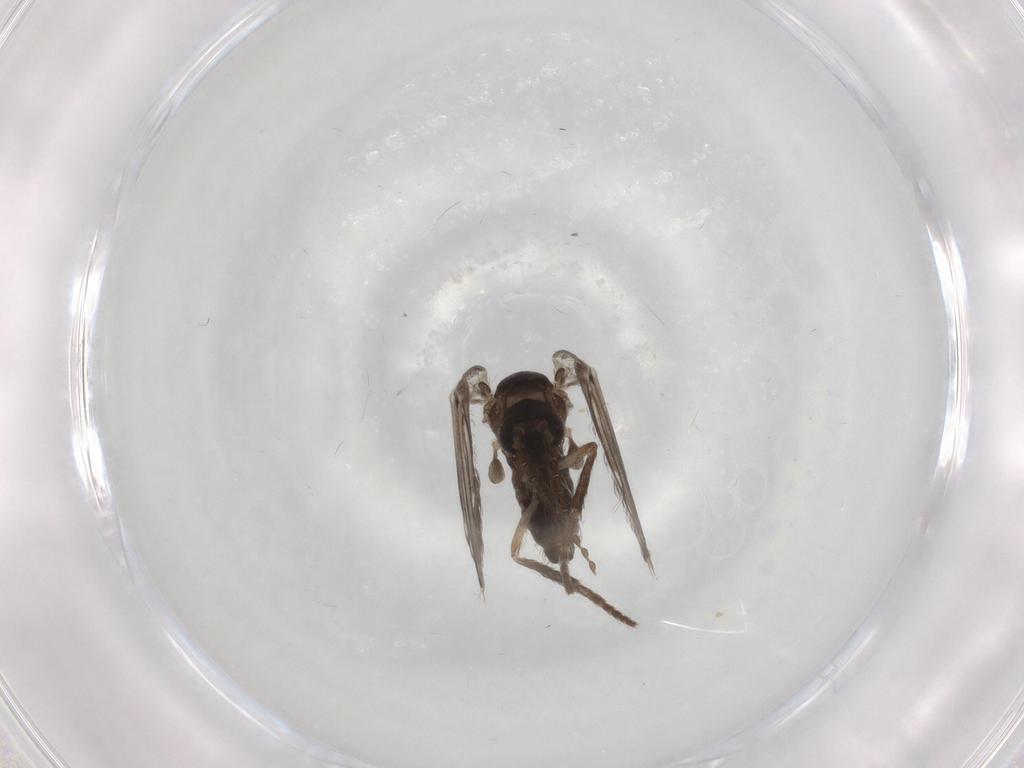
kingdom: Animalia
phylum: Arthropoda
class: Insecta
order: Diptera
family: Psychodidae
